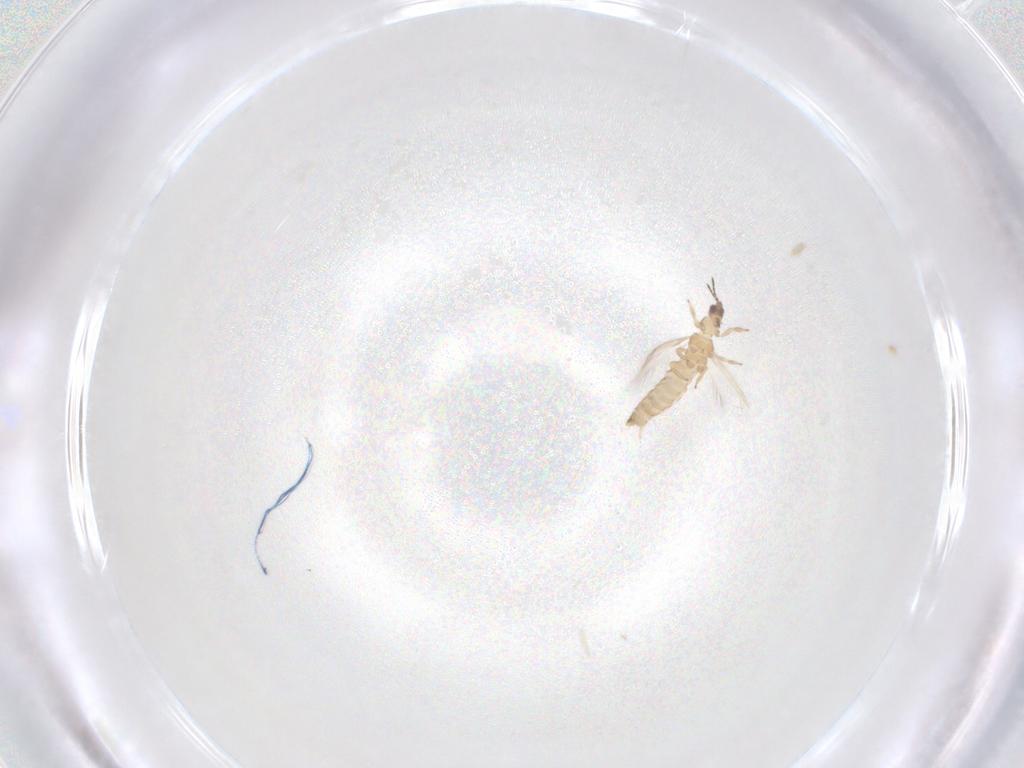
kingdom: Animalia
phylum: Arthropoda
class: Insecta
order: Thysanoptera
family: Thripidae
